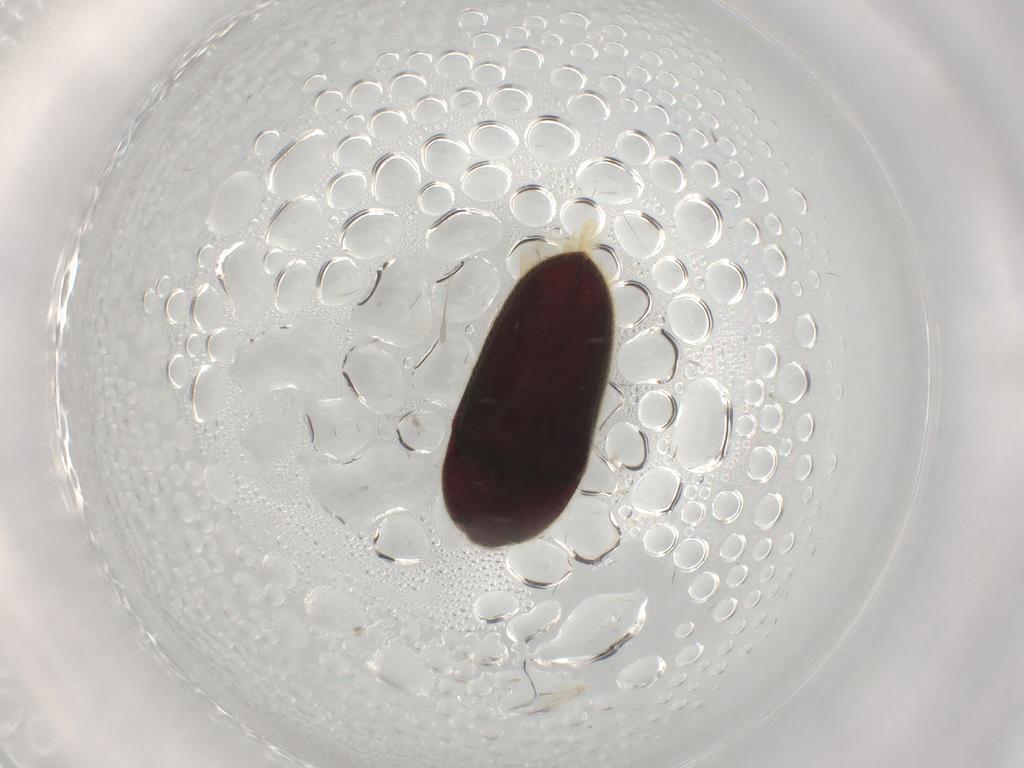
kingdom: Animalia
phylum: Arthropoda
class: Insecta
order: Coleoptera
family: Throscidae
